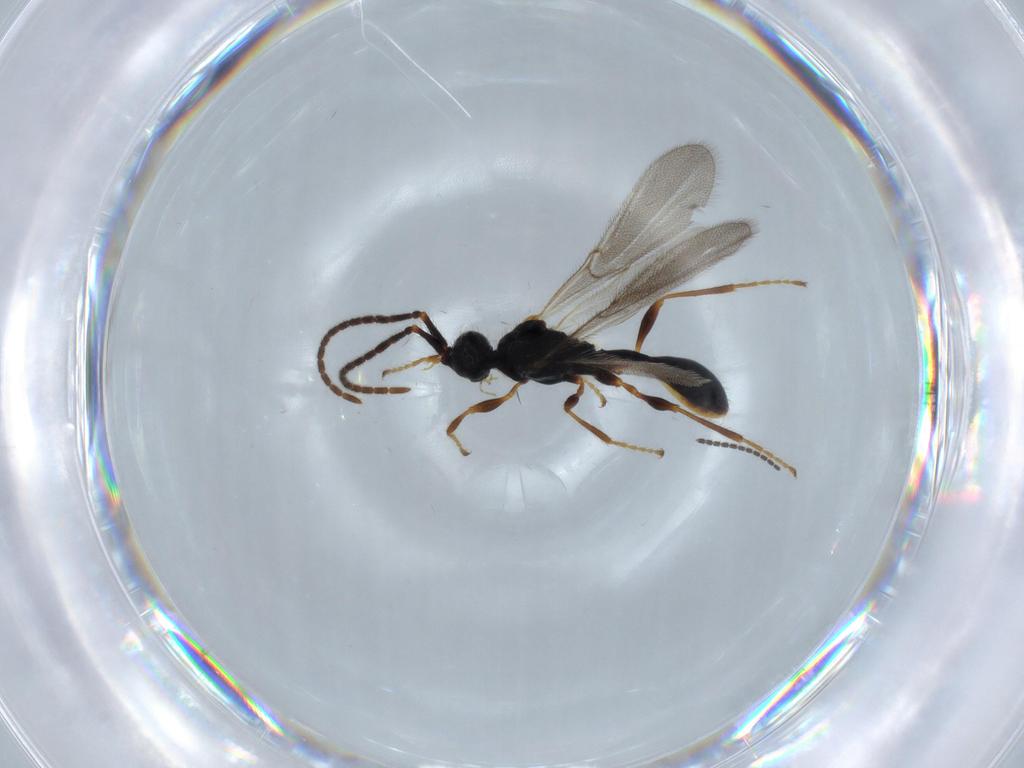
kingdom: Animalia
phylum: Arthropoda
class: Insecta
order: Hymenoptera
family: Diapriidae
